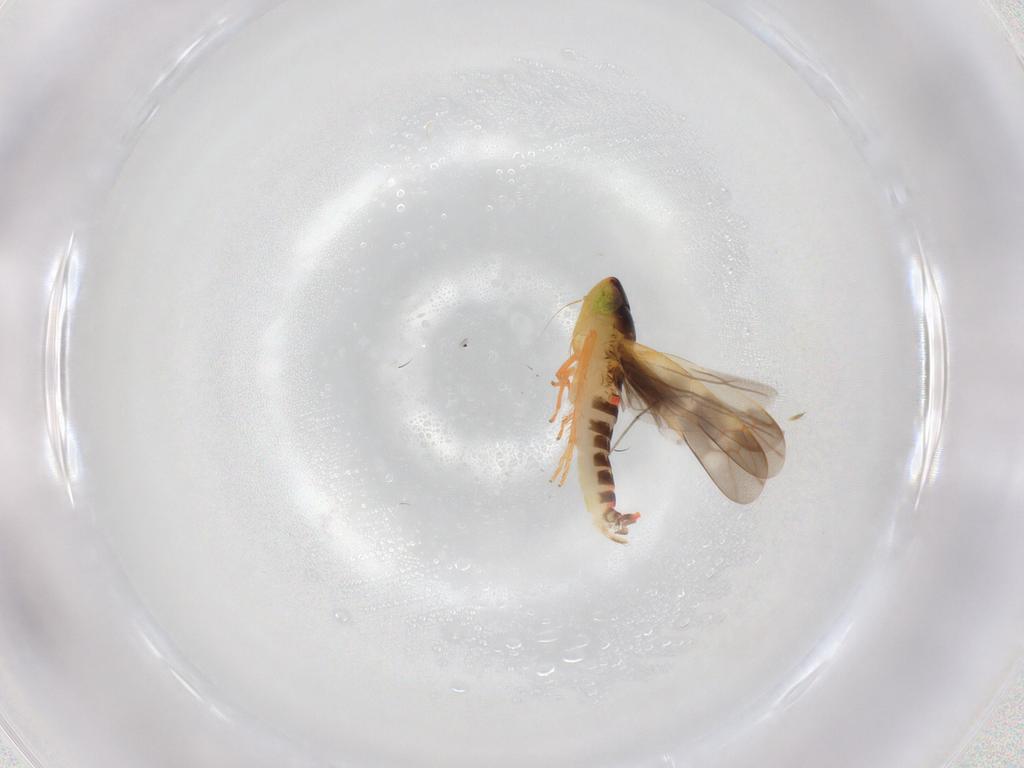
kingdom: Animalia
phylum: Arthropoda
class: Insecta
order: Hemiptera
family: Cicadellidae
